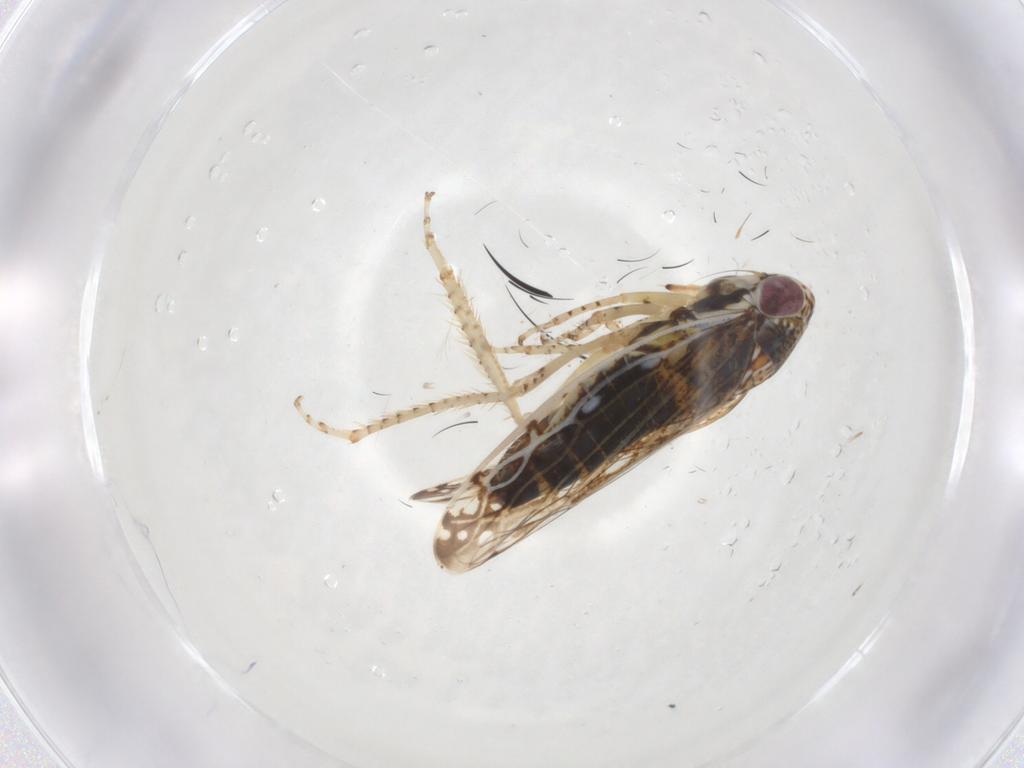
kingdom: Animalia
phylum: Arthropoda
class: Insecta
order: Hemiptera
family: Cicadellidae
